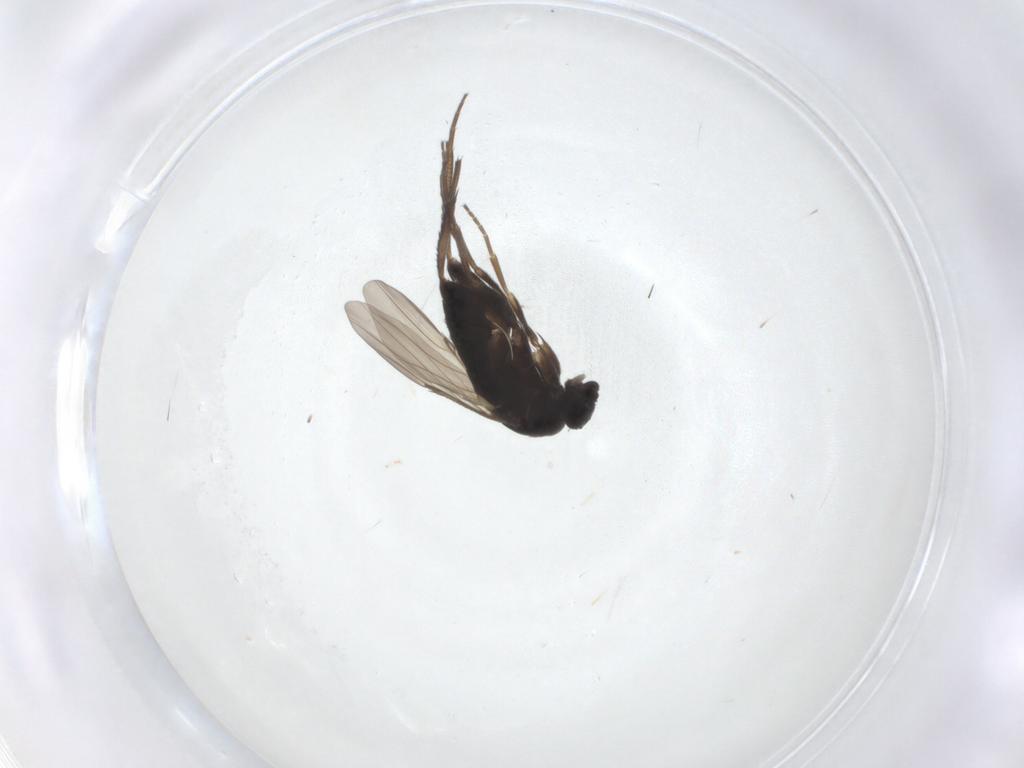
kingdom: Animalia
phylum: Arthropoda
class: Insecta
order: Diptera
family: Phoridae
